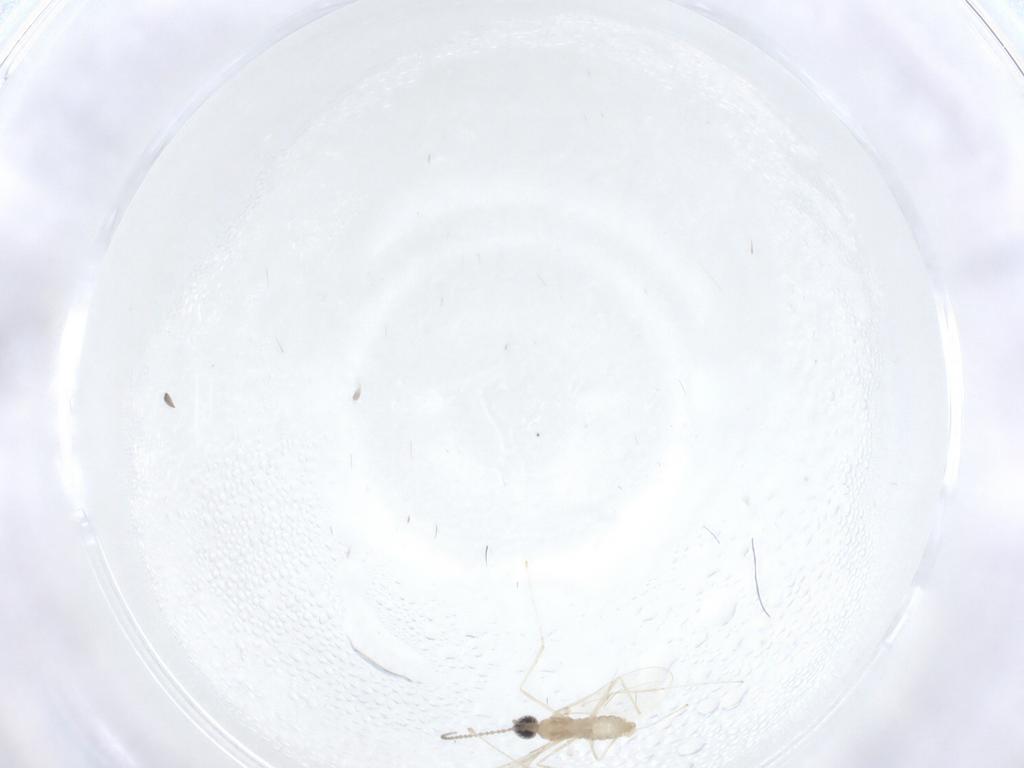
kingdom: Animalia
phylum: Arthropoda
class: Insecta
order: Diptera
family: Cecidomyiidae
